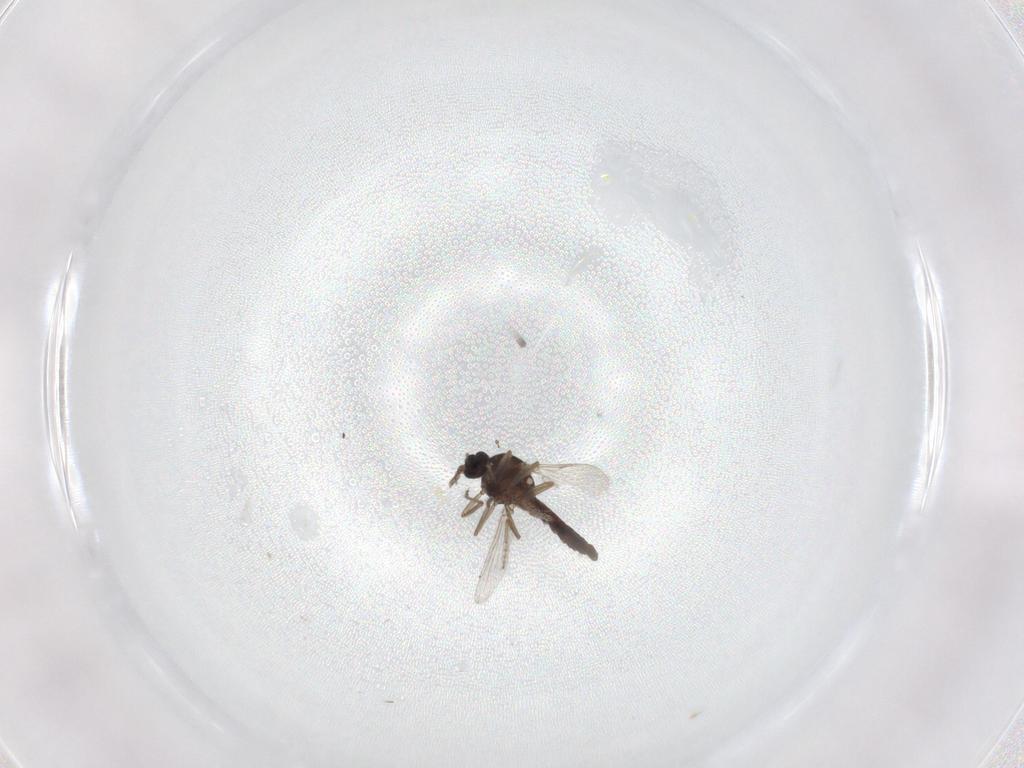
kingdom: Animalia
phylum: Arthropoda
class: Insecta
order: Diptera
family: Ceratopogonidae
